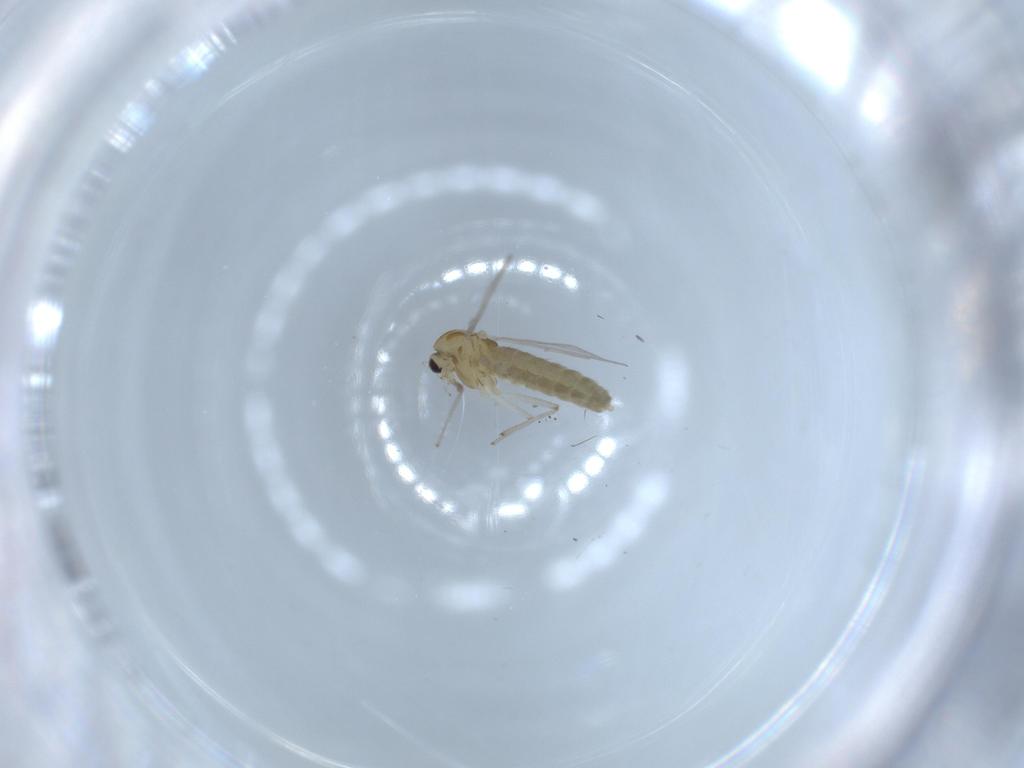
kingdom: Animalia
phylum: Arthropoda
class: Insecta
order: Diptera
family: Chironomidae
